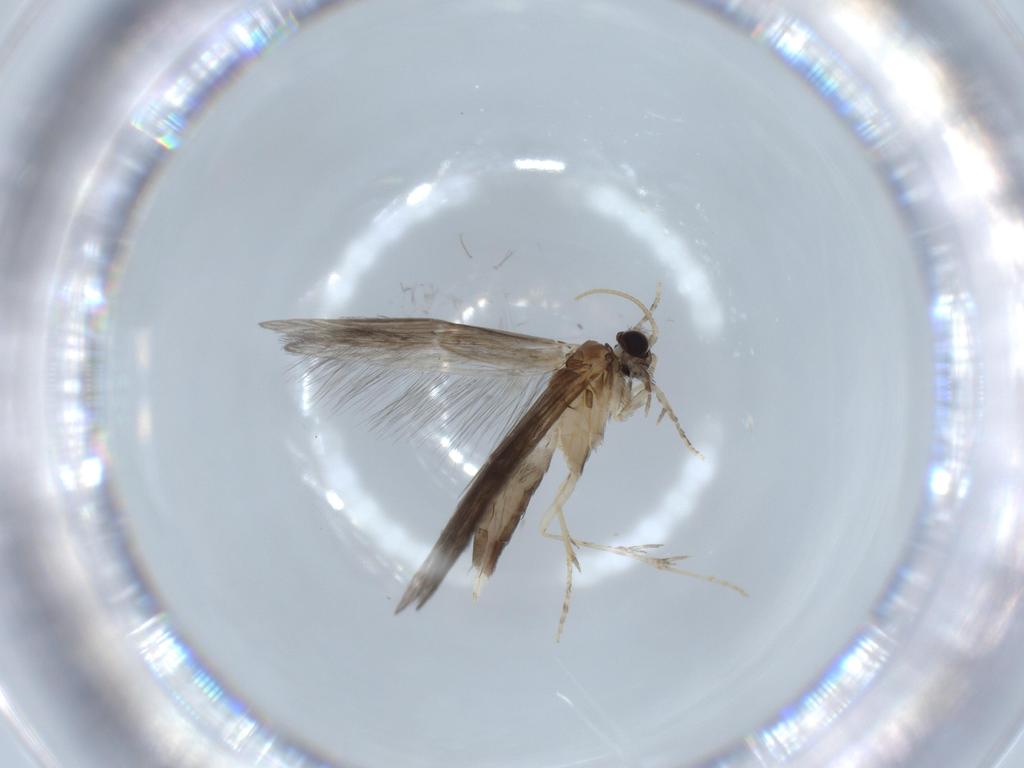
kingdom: Animalia
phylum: Arthropoda
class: Insecta
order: Trichoptera
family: Hydroptilidae
